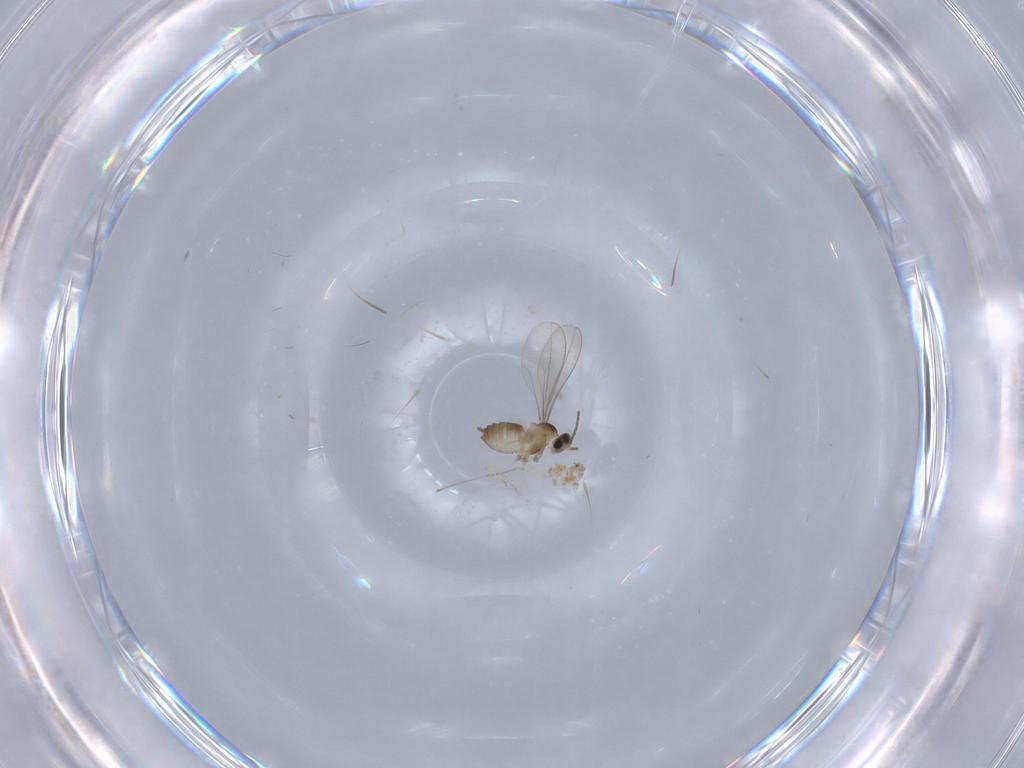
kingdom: Animalia
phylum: Arthropoda
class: Insecta
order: Diptera
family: Cecidomyiidae
